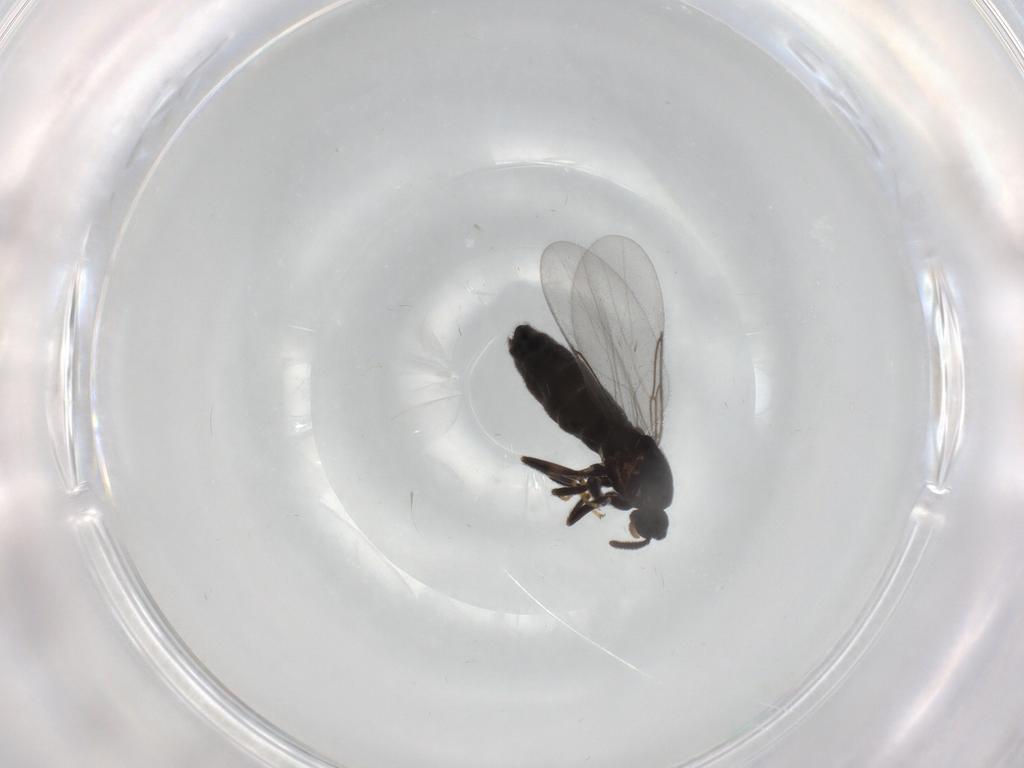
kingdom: Animalia
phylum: Arthropoda
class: Insecta
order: Diptera
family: Scatopsidae
